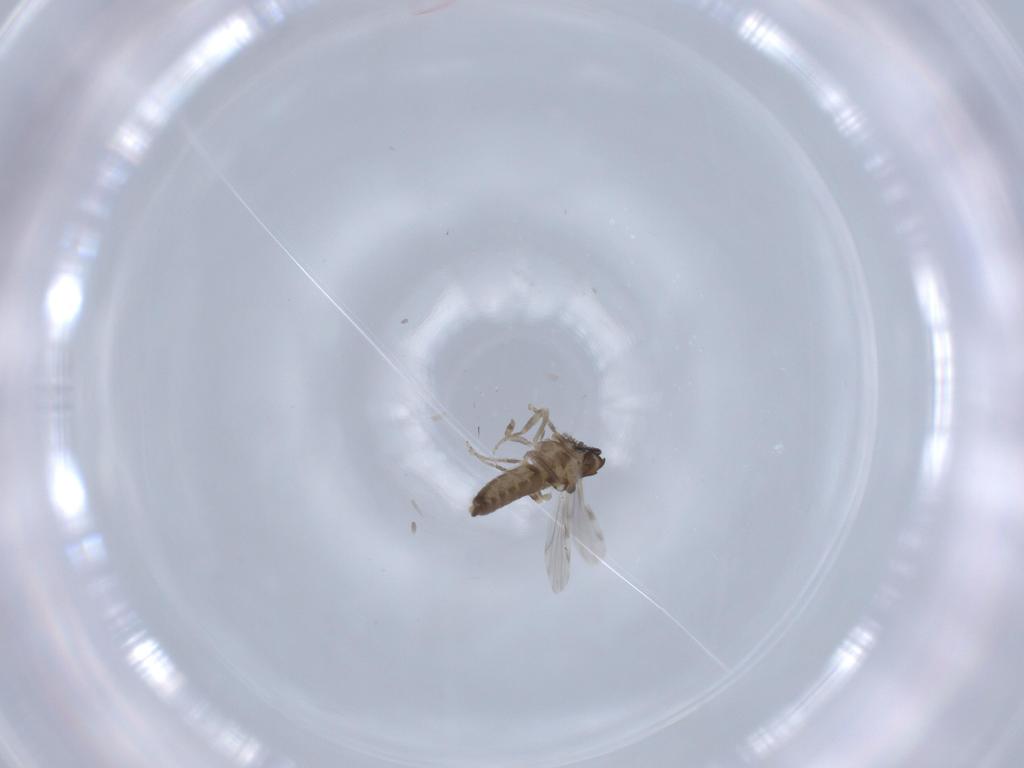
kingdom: Animalia
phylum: Arthropoda
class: Insecta
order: Diptera
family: Ceratopogonidae
